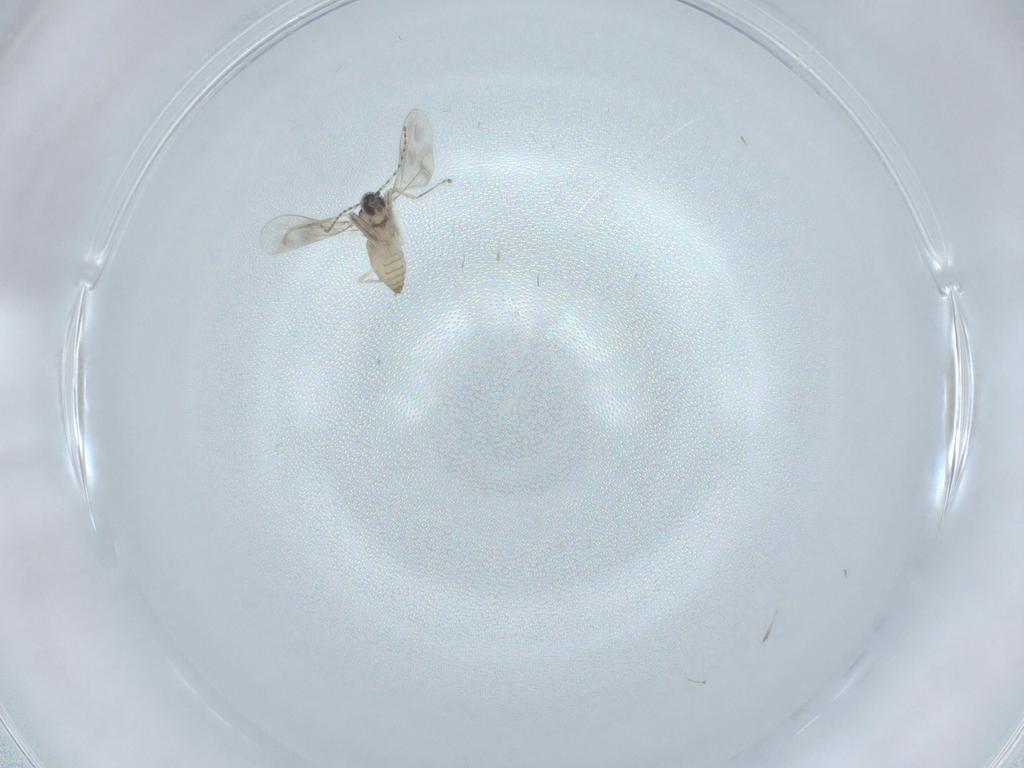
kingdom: Animalia
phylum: Arthropoda
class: Insecta
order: Diptera
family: Cecidomyiidae
